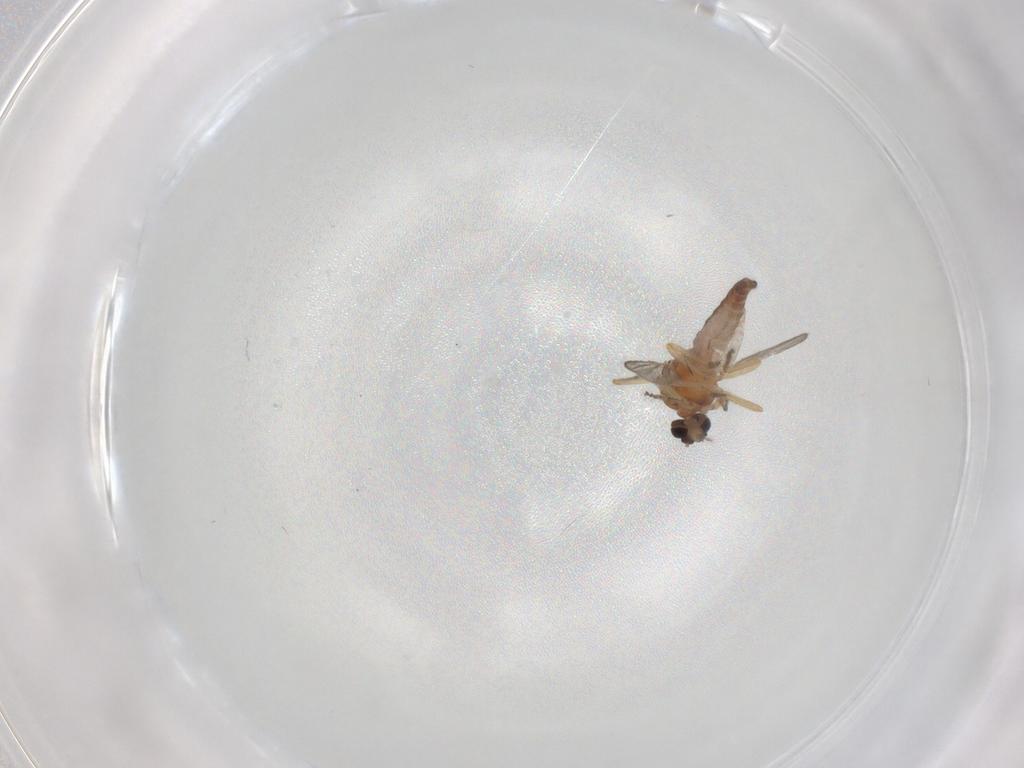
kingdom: Animalia
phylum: Arthropoda
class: Insecta
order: Diptera
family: Ceratopogonidae
